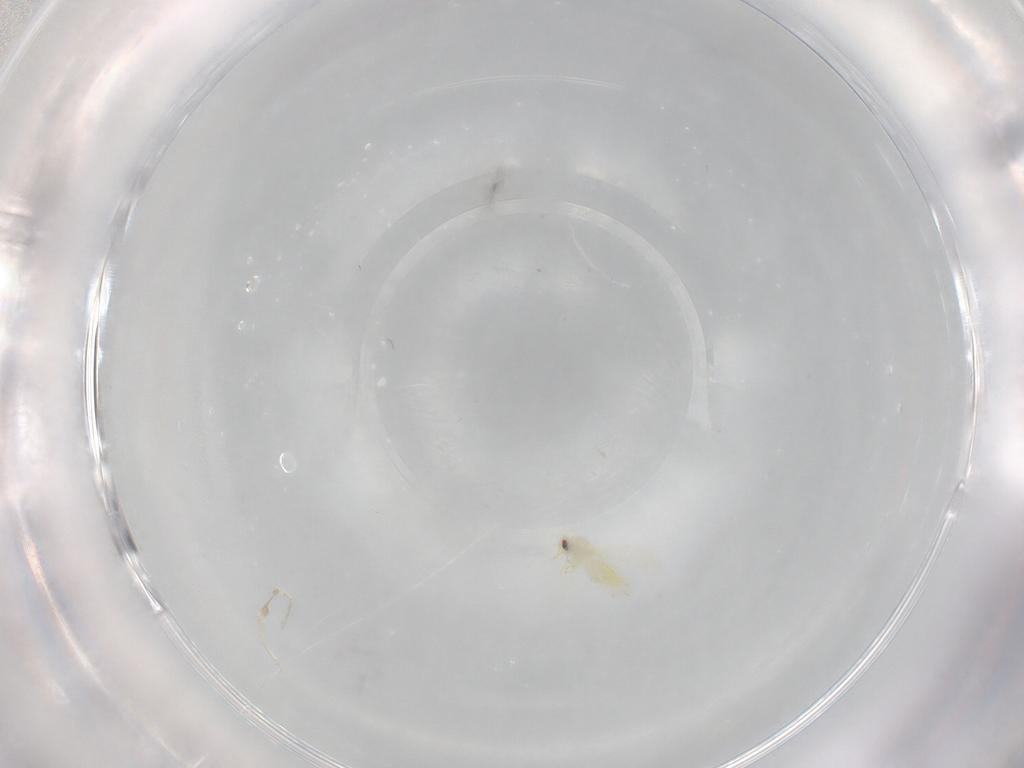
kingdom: Animalia
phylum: Arthropoda
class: Insecta
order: Hemiptera
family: Aleyrodidae
